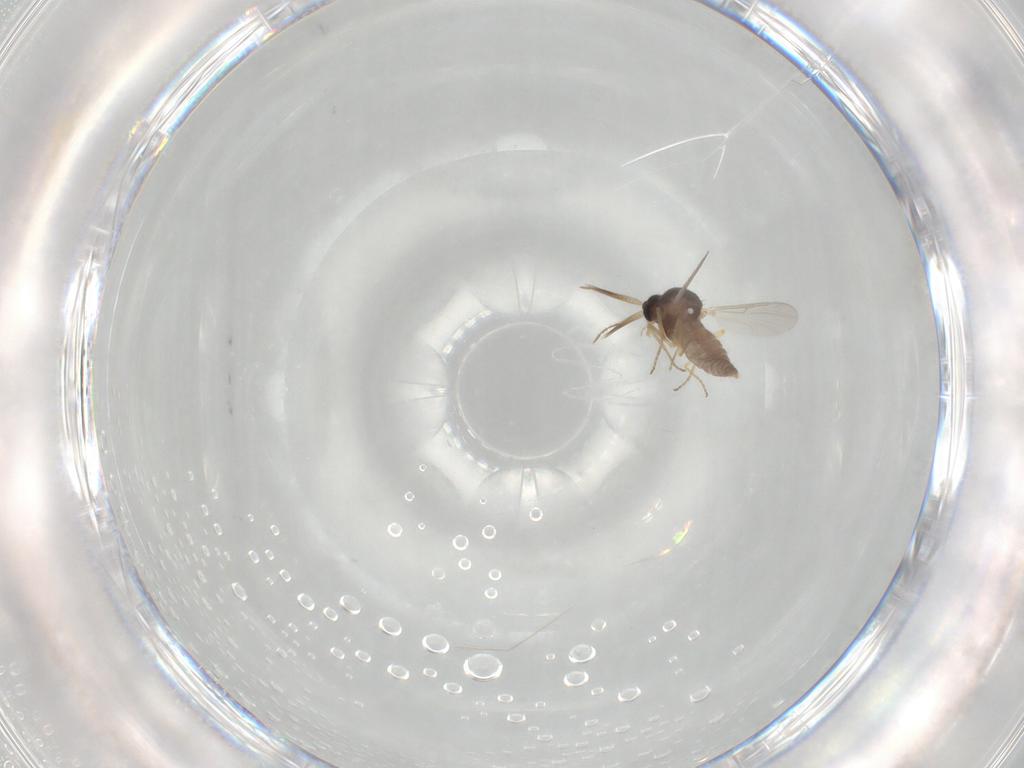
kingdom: Animalia
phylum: Arthropoda
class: Insecta
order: Diptera
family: Ceratopogonidae
